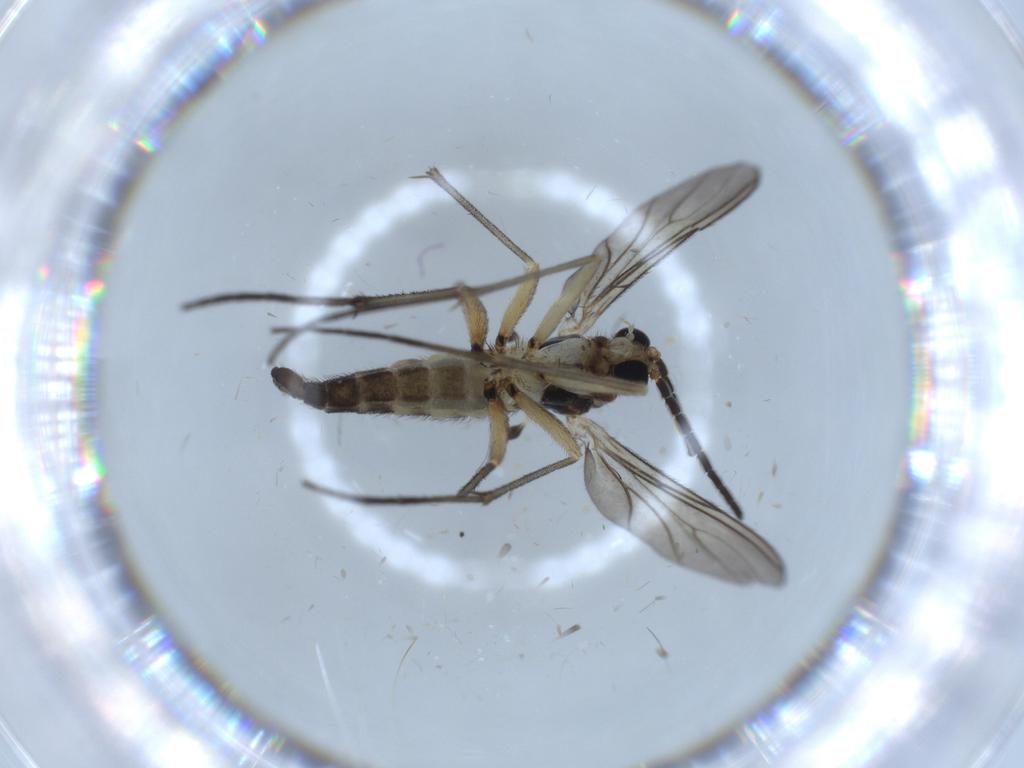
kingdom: Animalia
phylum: Arthropoda
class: Insecta
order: Diptera
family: Sciaridae
